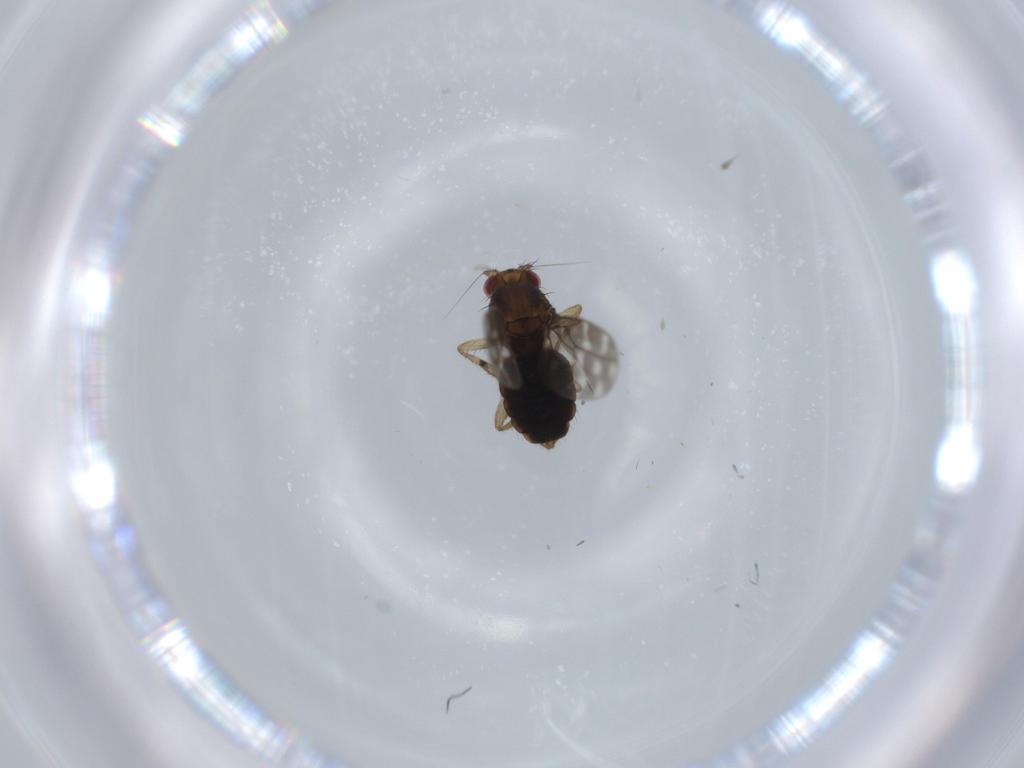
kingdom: Animalia
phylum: Arthropoda
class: Insecta
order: Diptera
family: Sphaeroceridae
